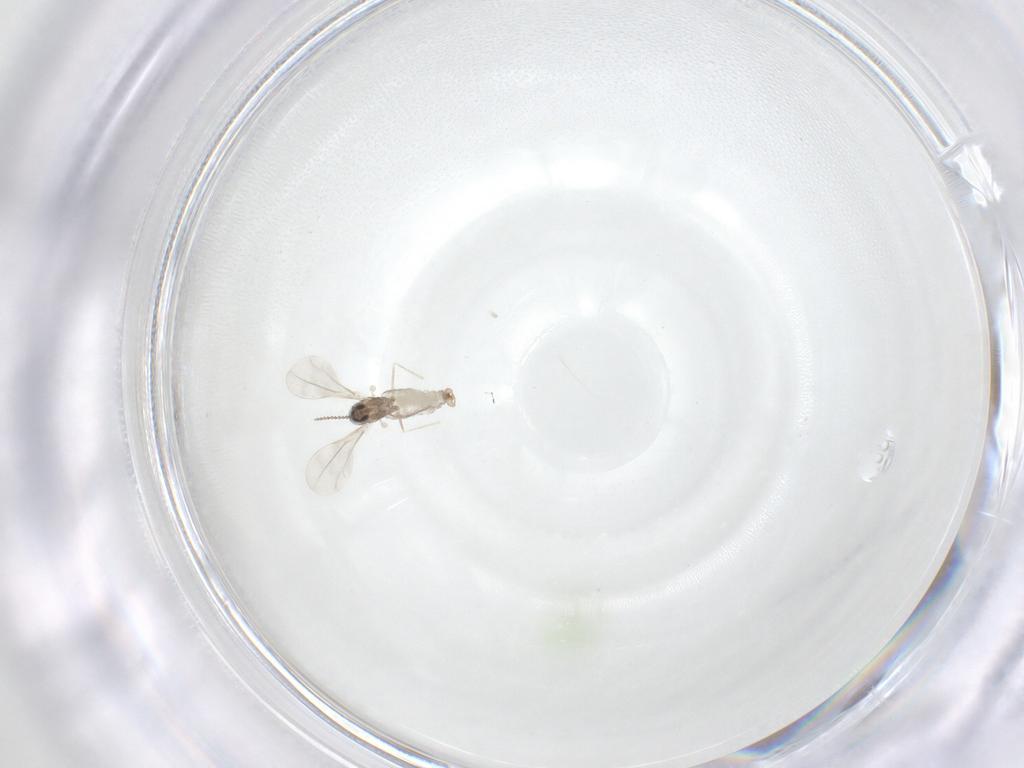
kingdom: Animalia
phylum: Arthropoda
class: Insecta
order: Diptera
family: Cecidomyiidae
